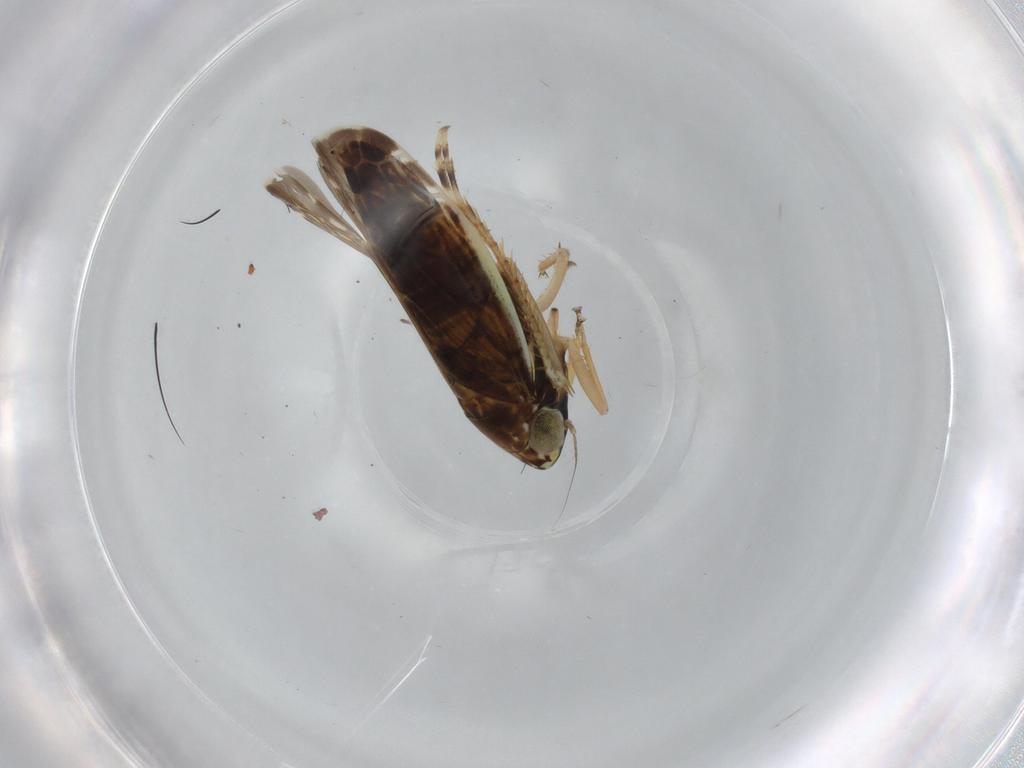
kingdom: Animalia
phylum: Arthropoda
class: Insecta
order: Hemiptera
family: Cicadellidae
